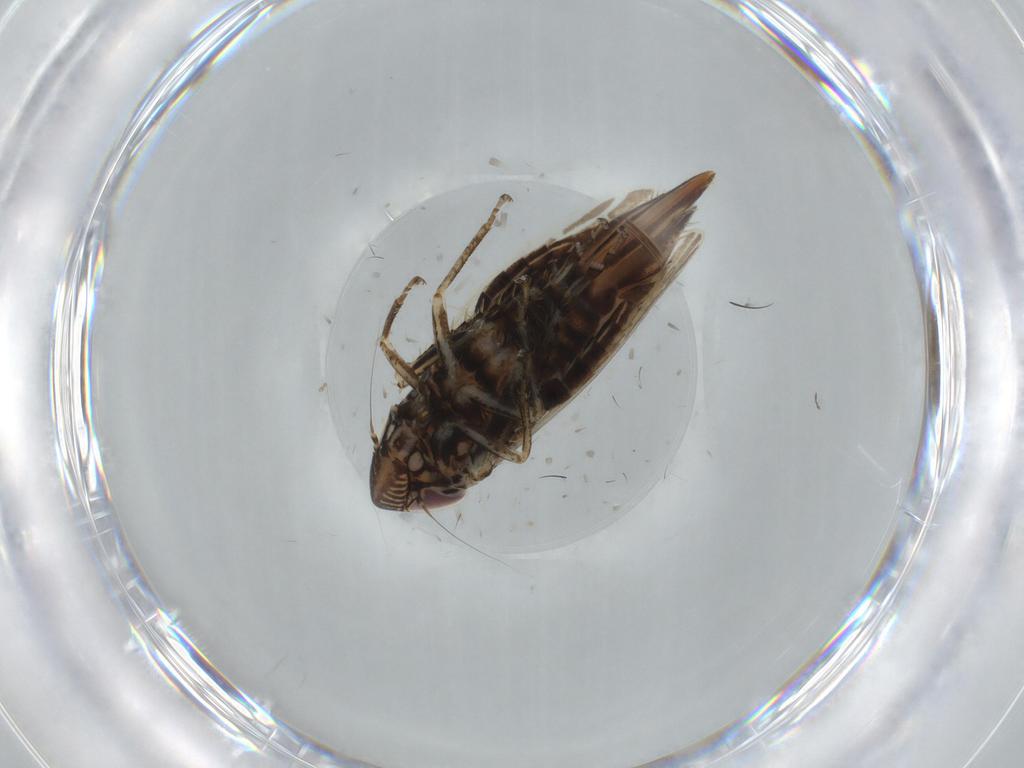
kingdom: Animalia
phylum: Arthropoda
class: Insecta
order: Hemiptera
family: Cicadellidae
